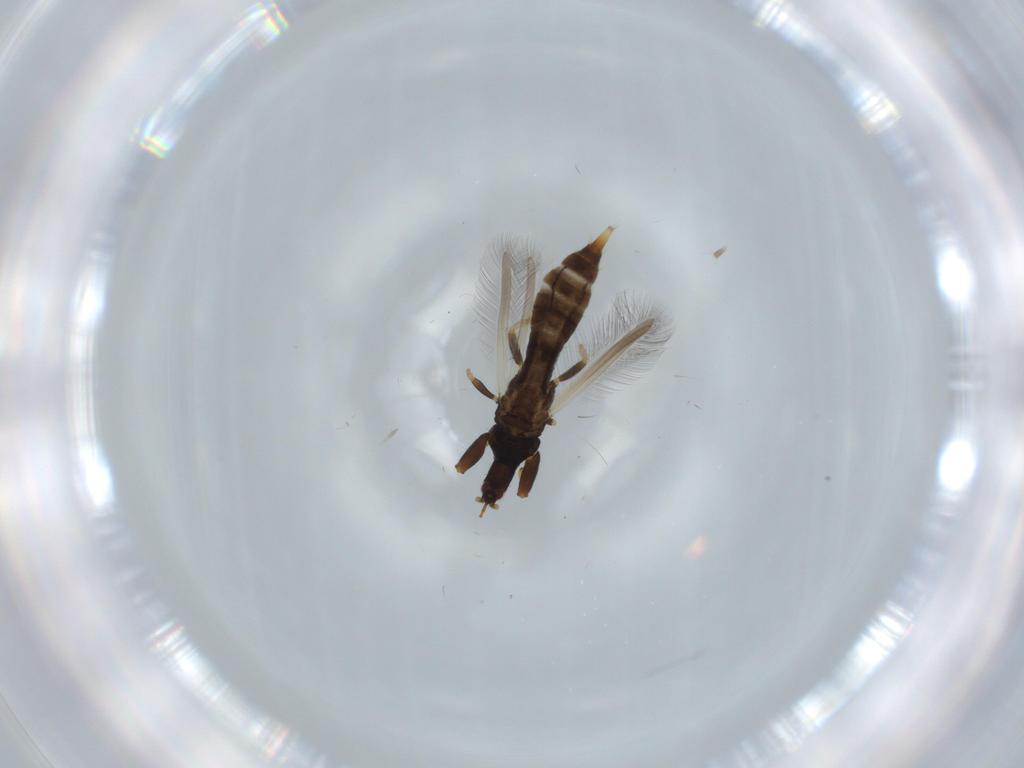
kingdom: Animalia
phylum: Arthropoda
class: Insecta
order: Thysanoptera
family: Phlaeothripidae
